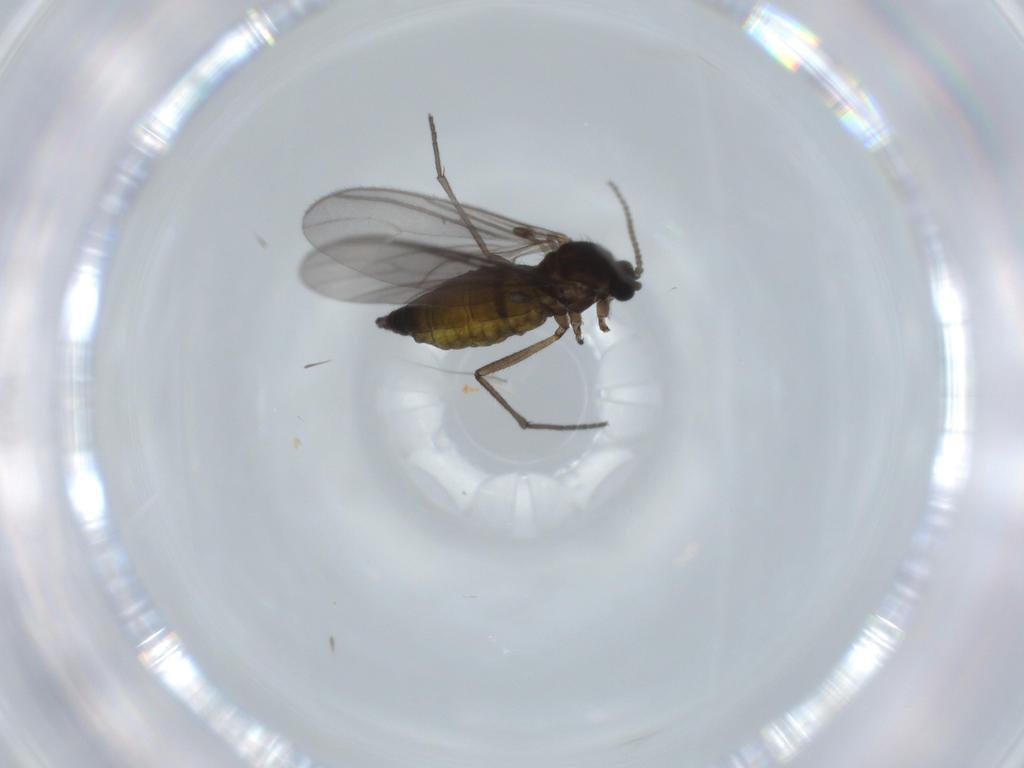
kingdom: Animalia
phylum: Arthropoda
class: Insecta
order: Diptera
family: Sciaridae
